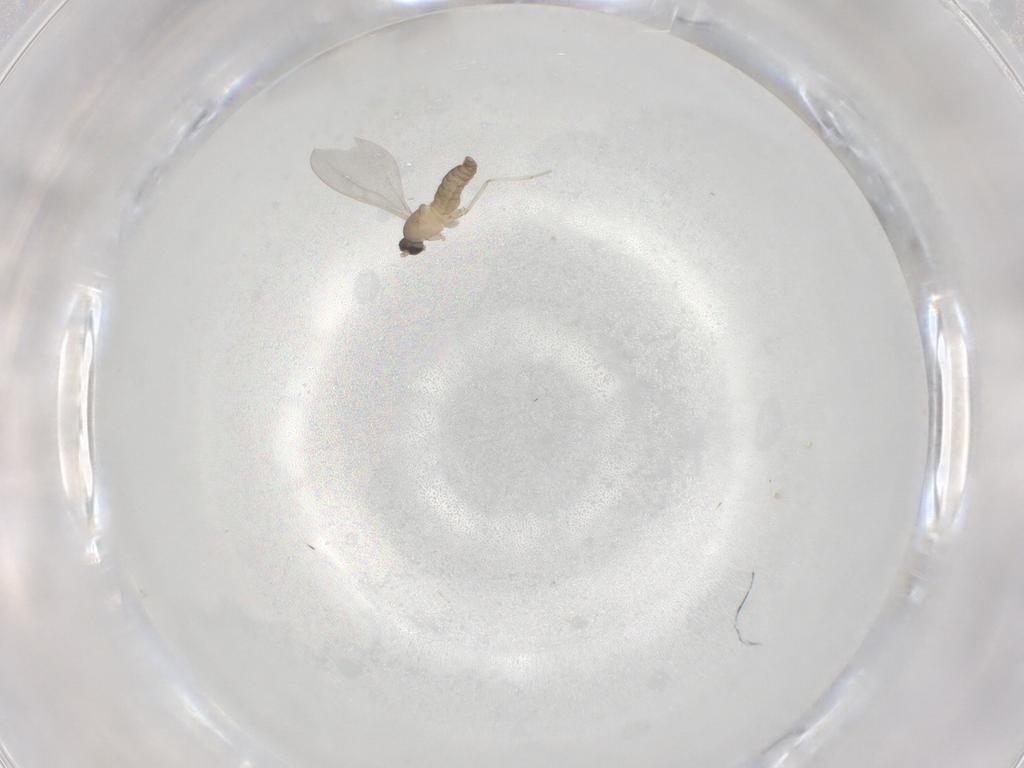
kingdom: Animalia
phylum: Arthropoda
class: Insecta
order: Diptera
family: Cecidomyiidae
